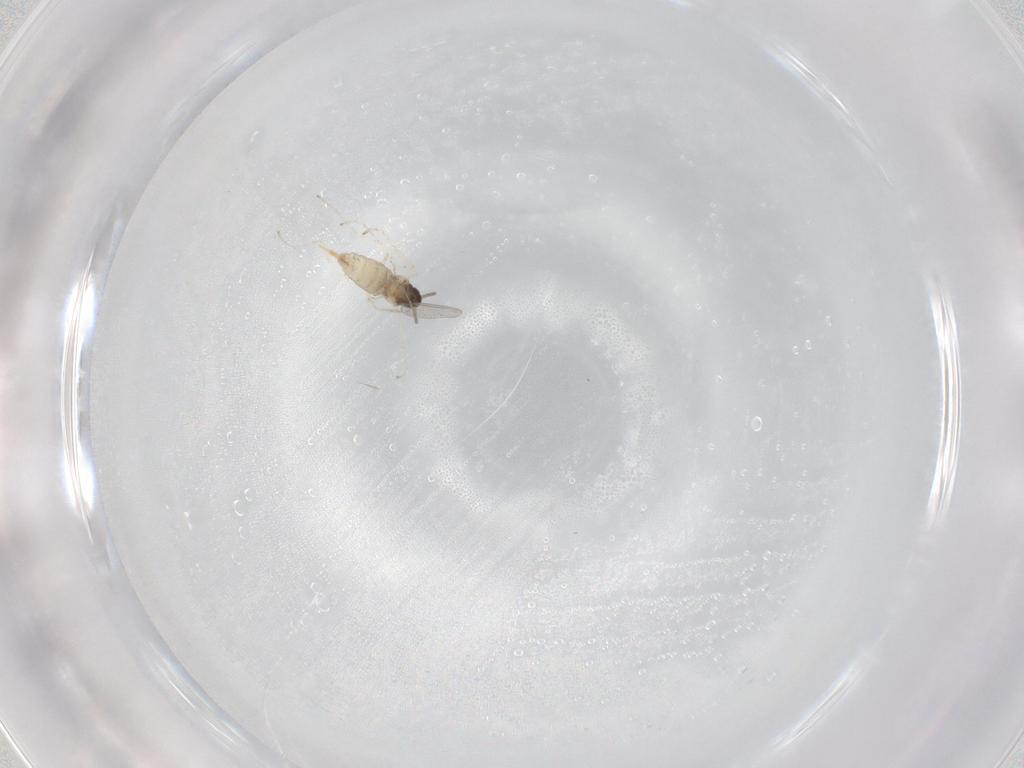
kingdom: Animalia
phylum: Arthropoda
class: Insecta
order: Diptera
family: Cecidomyiidae
